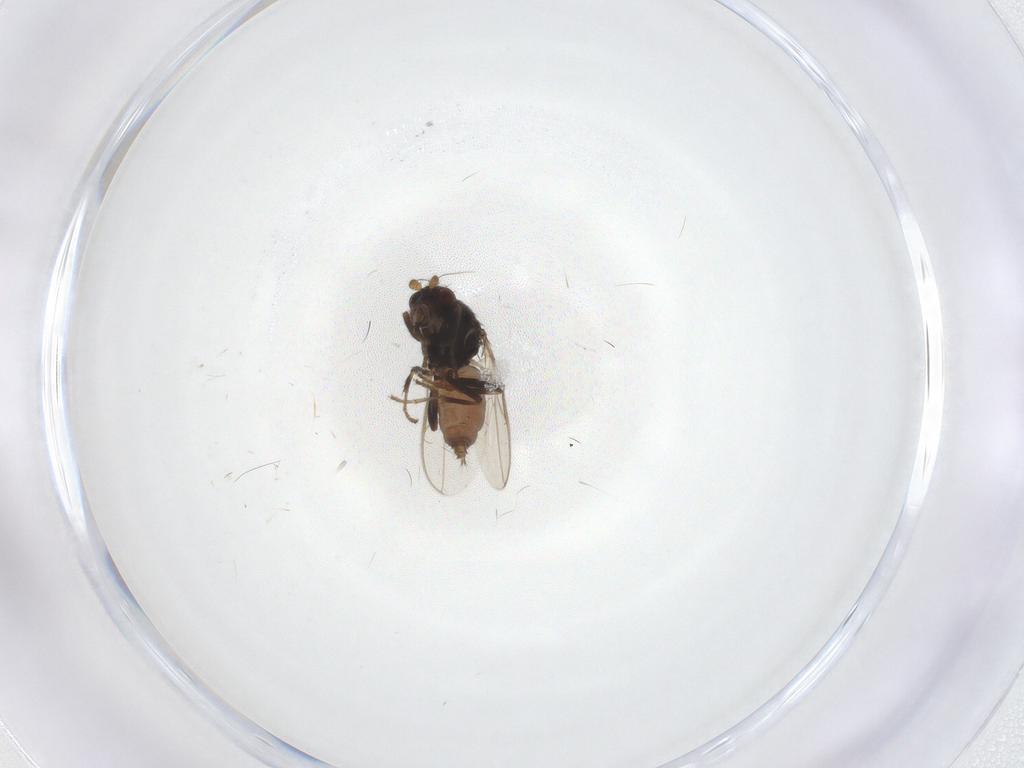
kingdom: Animalia
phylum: Arthropoda
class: Insecta
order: Diptera
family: Sphaeroceridae
